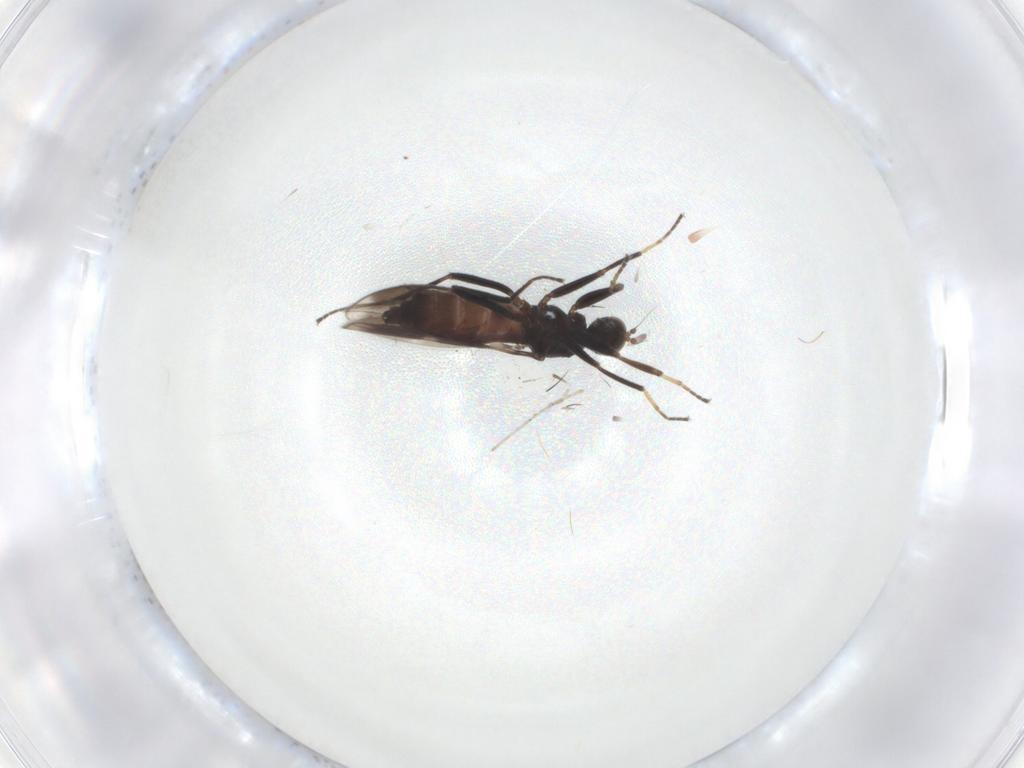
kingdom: Animalia
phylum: Arthropoda
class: Insecta
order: Diptera
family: Hybotidae
